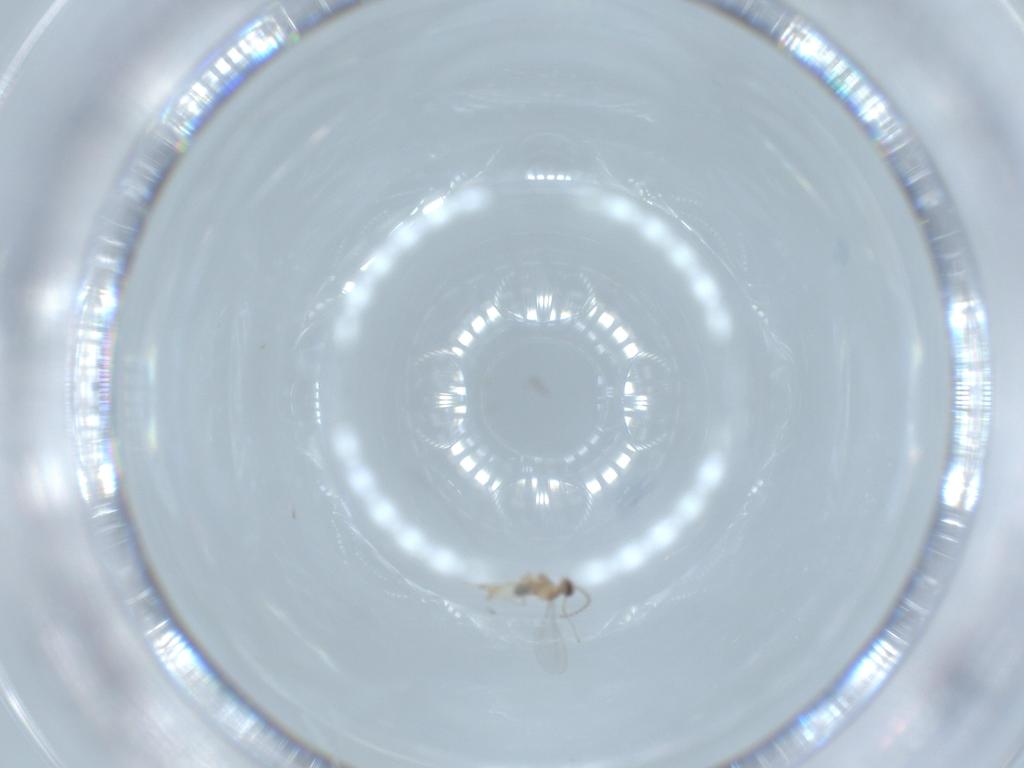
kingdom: Animalia
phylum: Arthropoda
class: Insecta
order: Diptera
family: Cecidomyiidae
